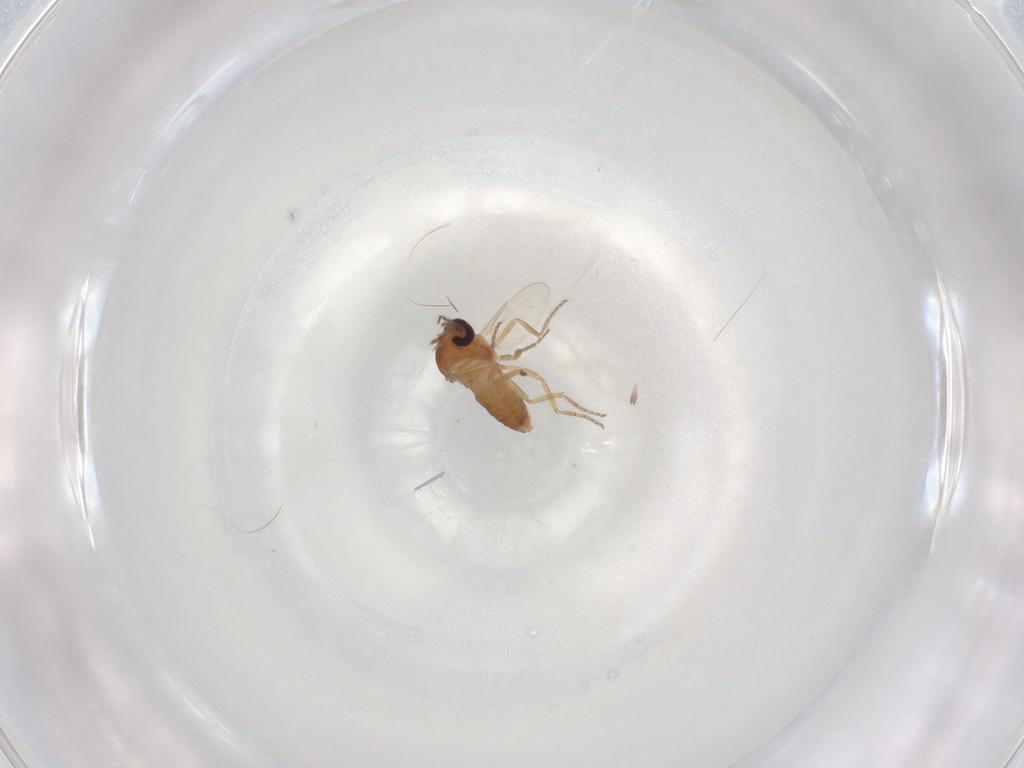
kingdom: Animalia
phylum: Arthropoda
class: Insecta
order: Diptera
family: Ceratopogonidae
